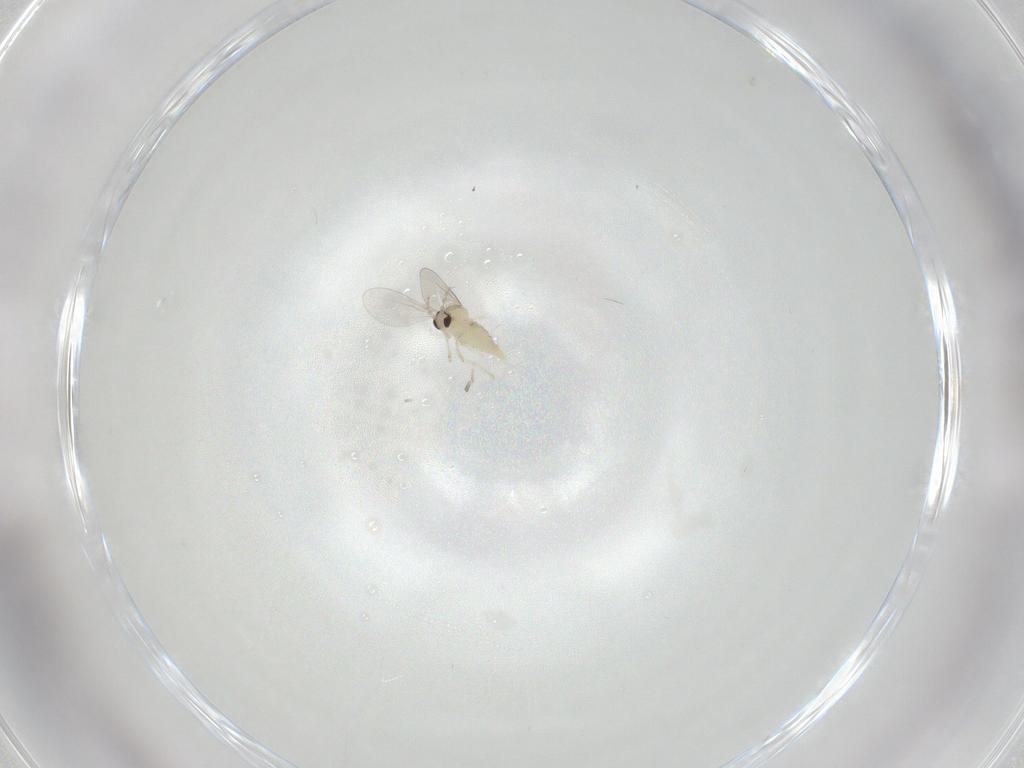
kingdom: Animalia
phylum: Arthropoda
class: Insecta
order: Diptera
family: Cecidomyiidae
